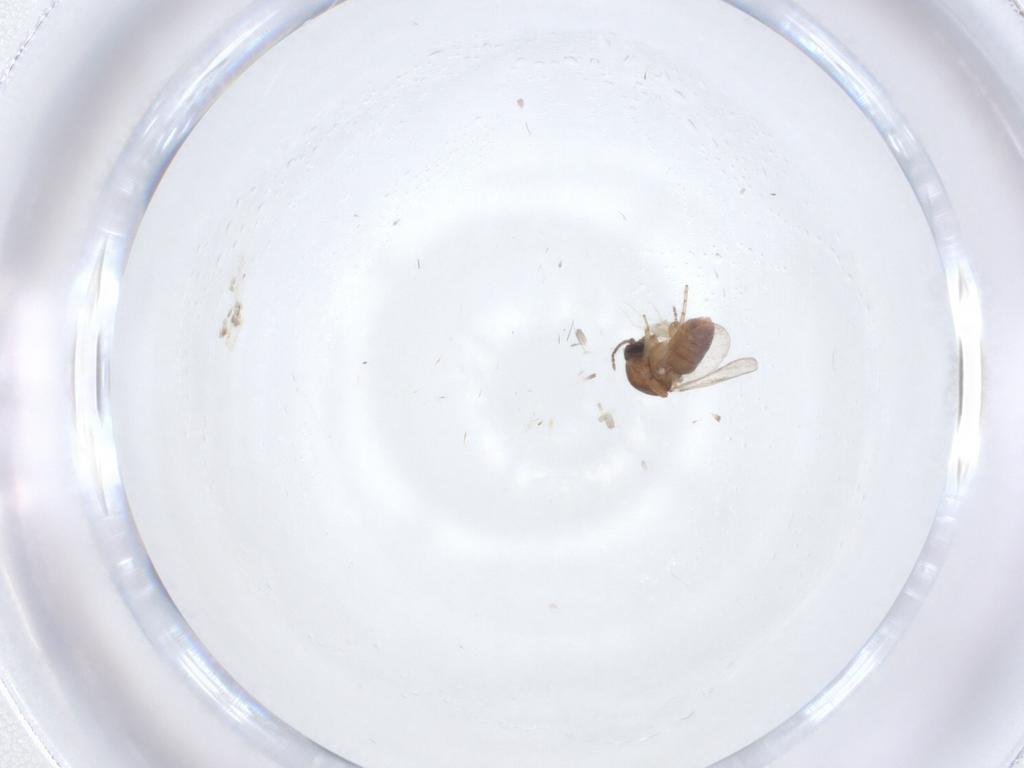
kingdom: Animalia
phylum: Arthropoda
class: Insecta
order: Diptera
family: Ceratopogonidae
